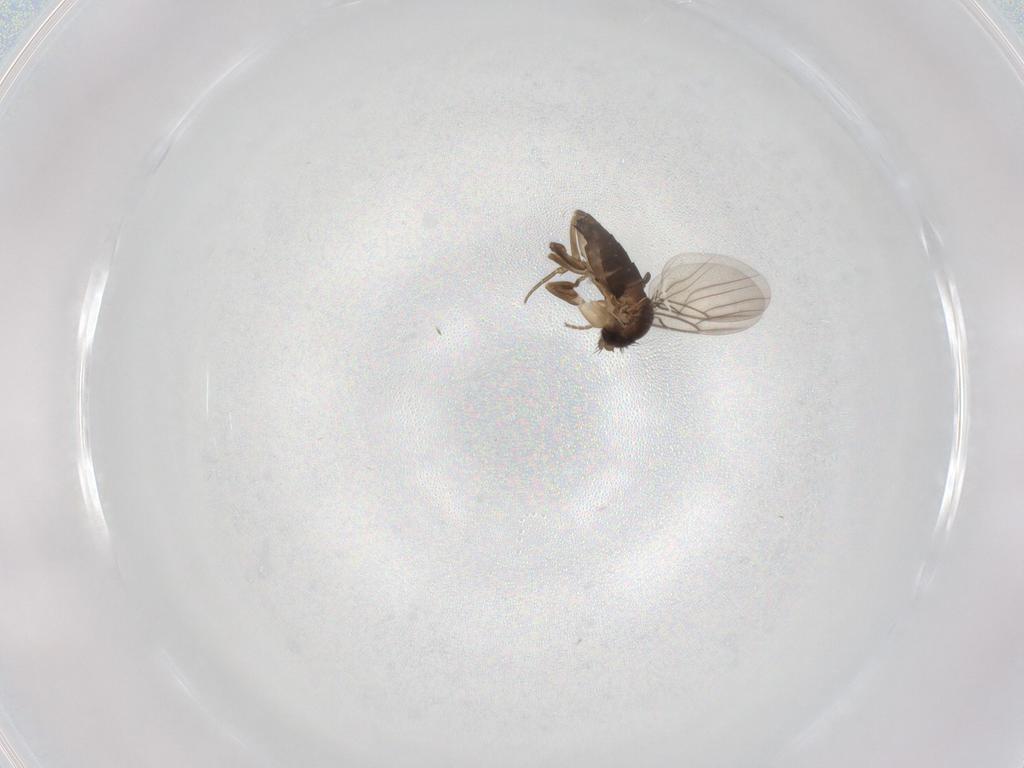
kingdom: Animalia
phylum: Arthropoda
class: Insecta
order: Diptera
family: Phoridae
